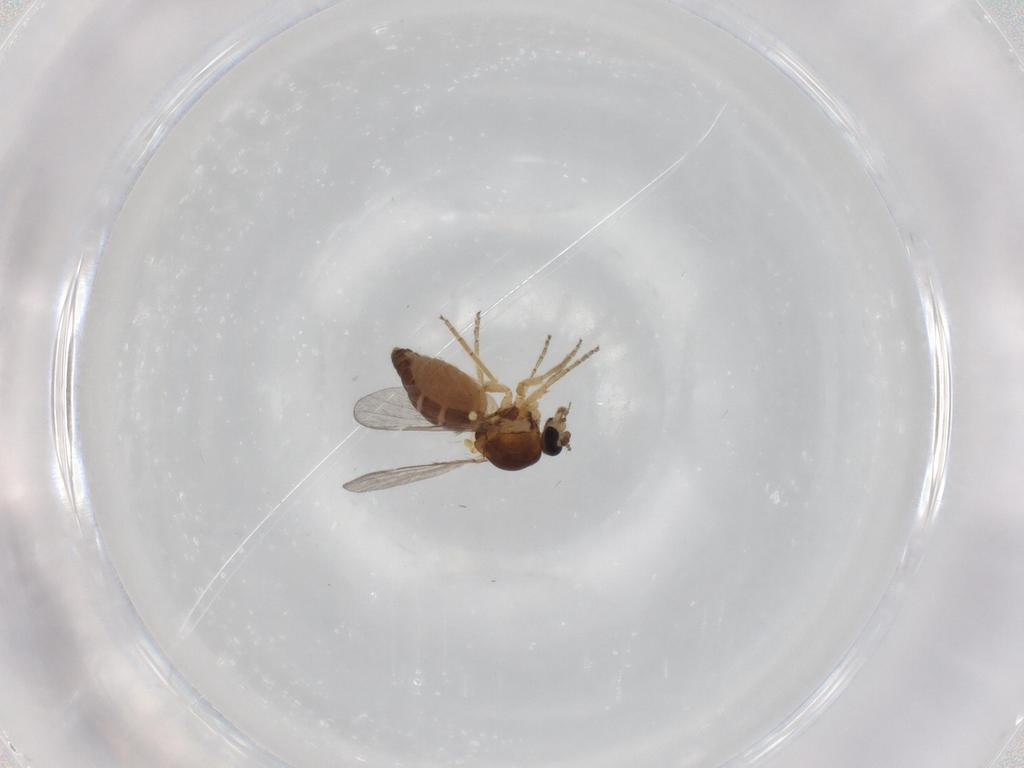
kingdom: Animalia
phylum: Arthropoda
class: Insecta
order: Diptera
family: Ceratopogonidae
